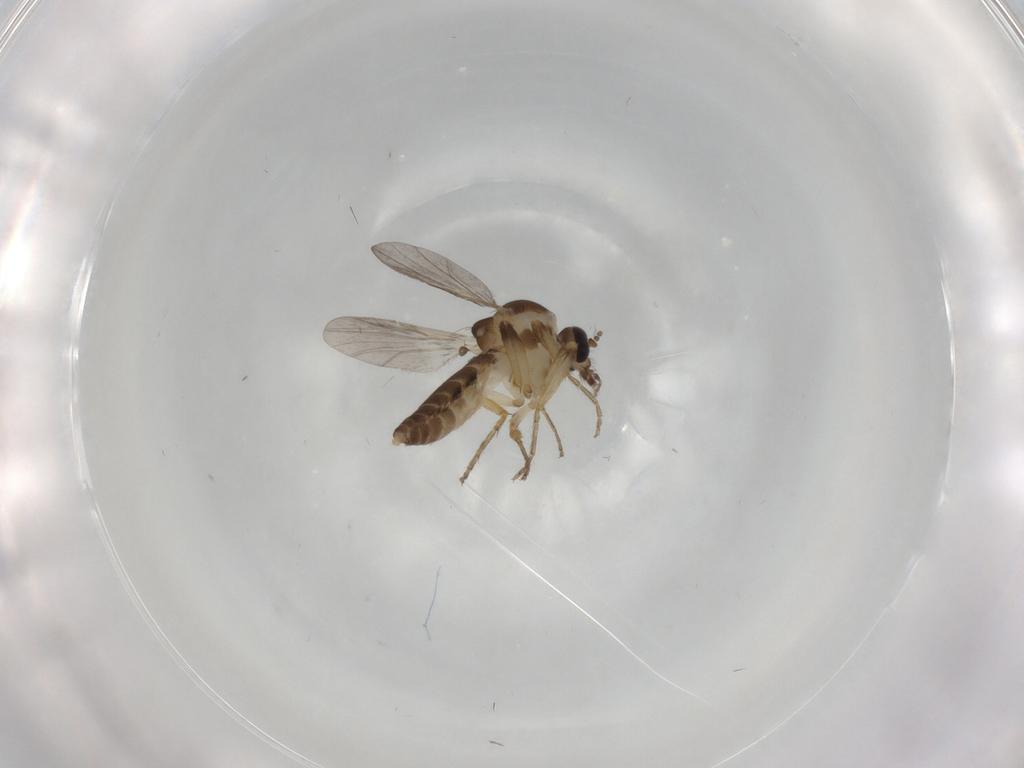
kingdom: Animalia
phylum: Arthropoda
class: Insecta
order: Diptera
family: Ceratopogonidae
